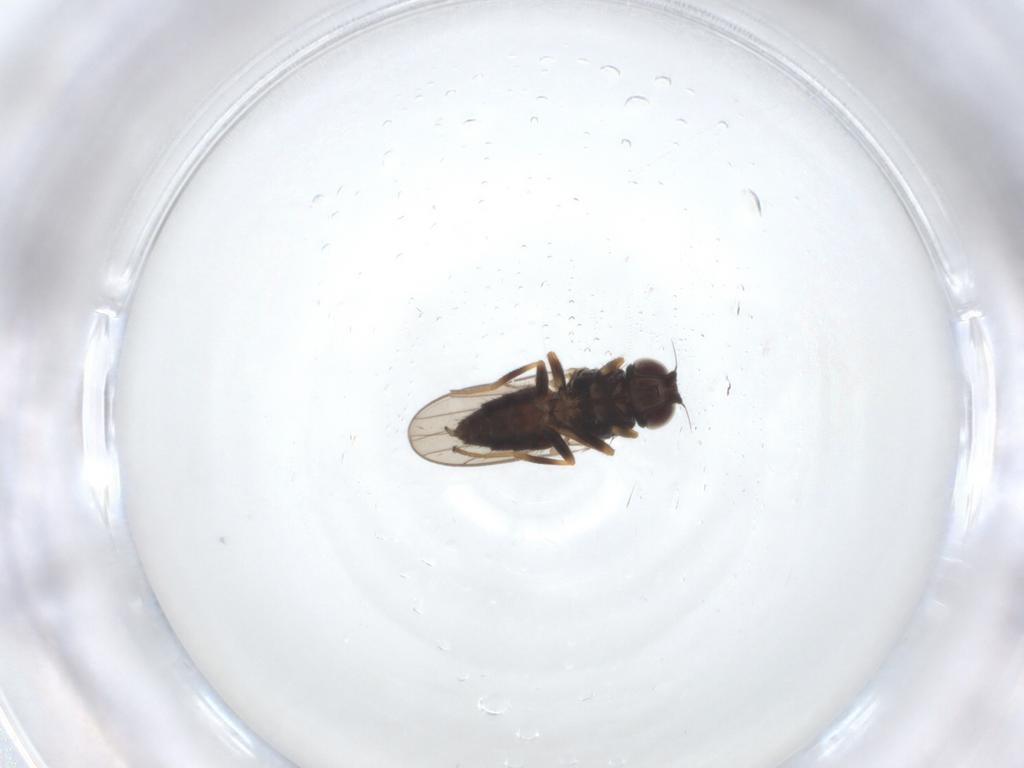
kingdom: Animalia
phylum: Arthropoda
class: Insecta
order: Diptera
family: Chloropidae
